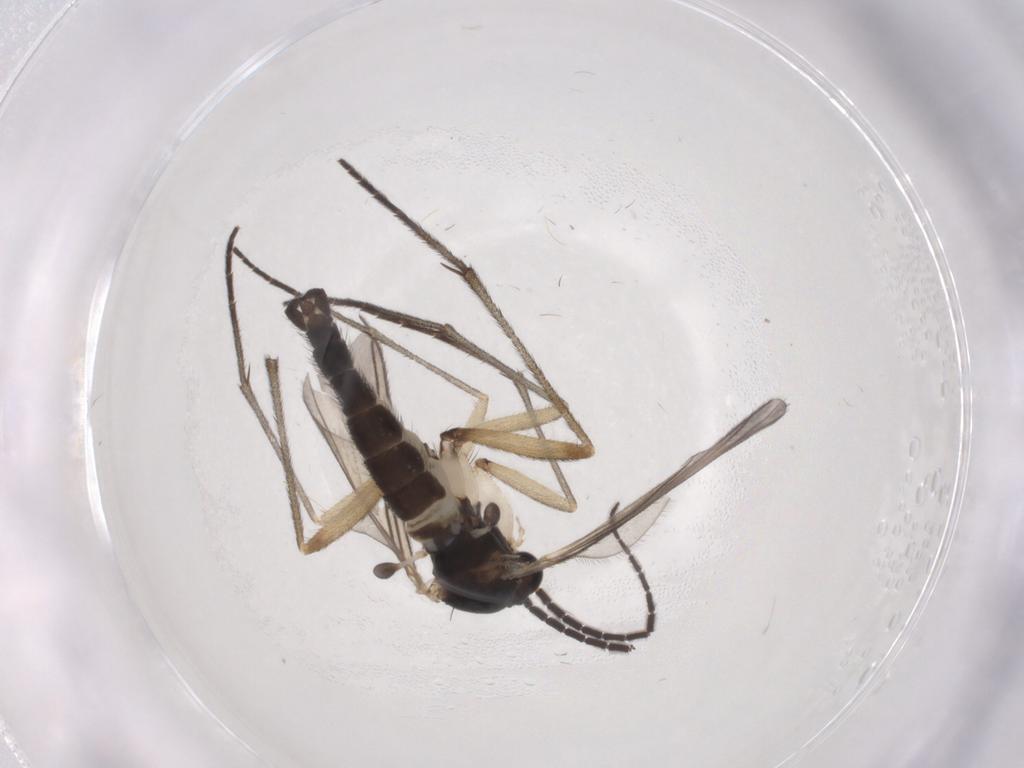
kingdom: Animalia
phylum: Arthropoda
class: Insecta
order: Diptera
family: Sciaridae
